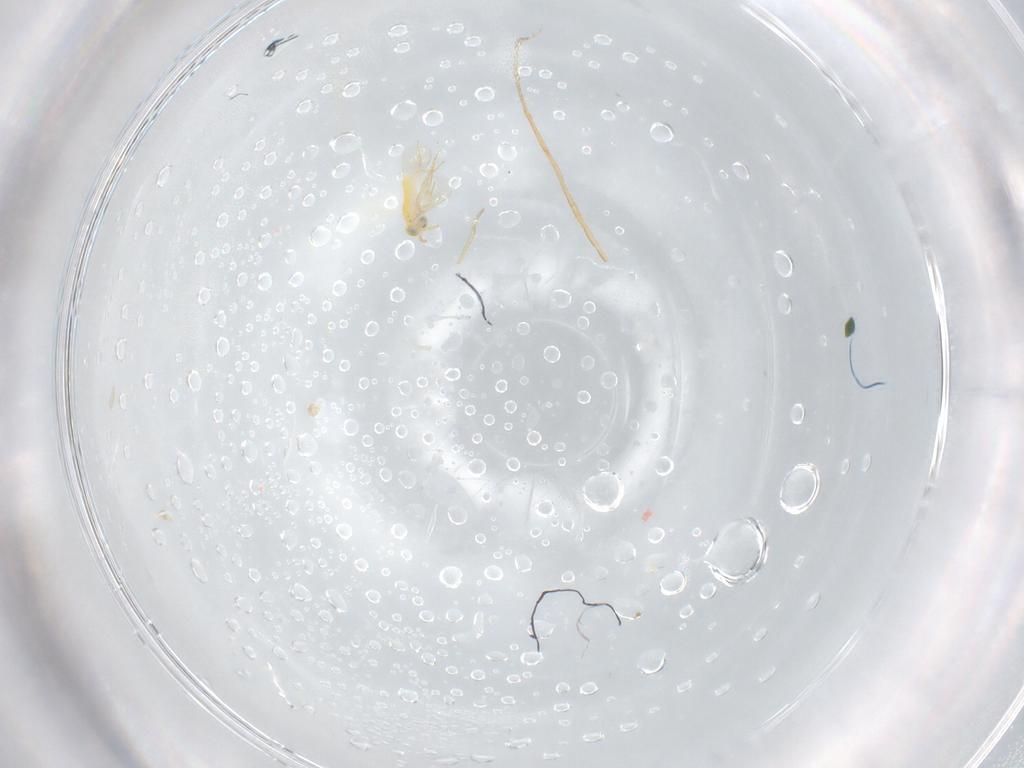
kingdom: Animalia
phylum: Arthropoda
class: Insecta
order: Hymenoptera
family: Aphelinidae
